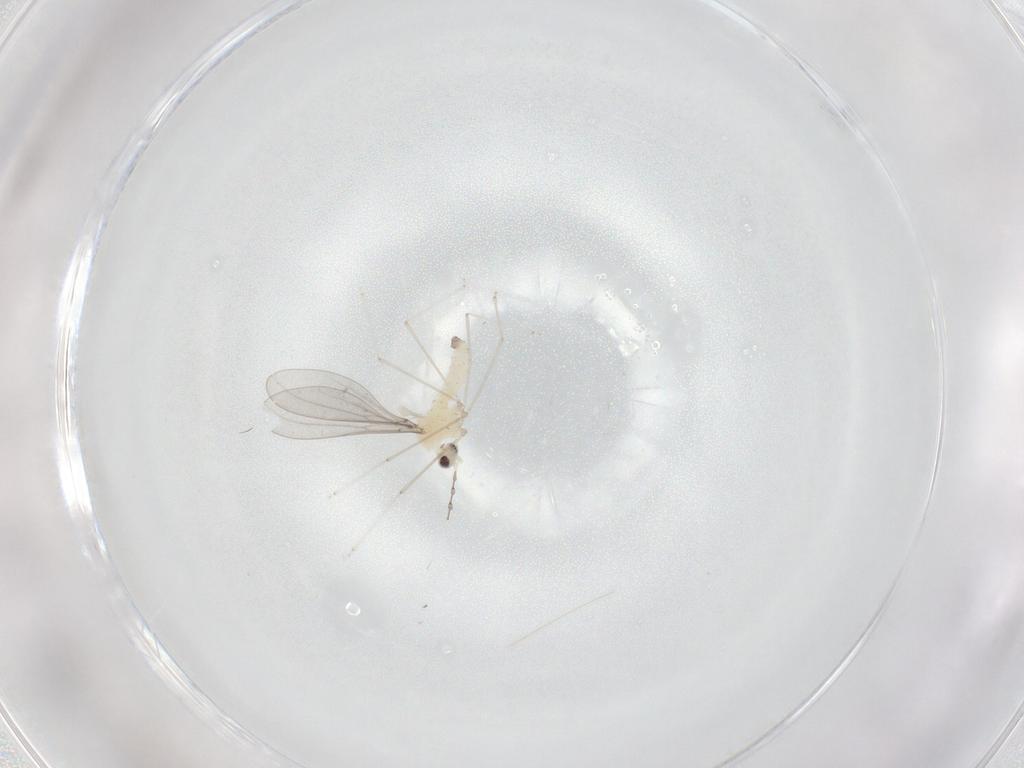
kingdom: Animalia
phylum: Arthropoda
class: Insecta
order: Diptera
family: Cecidomyiidae
